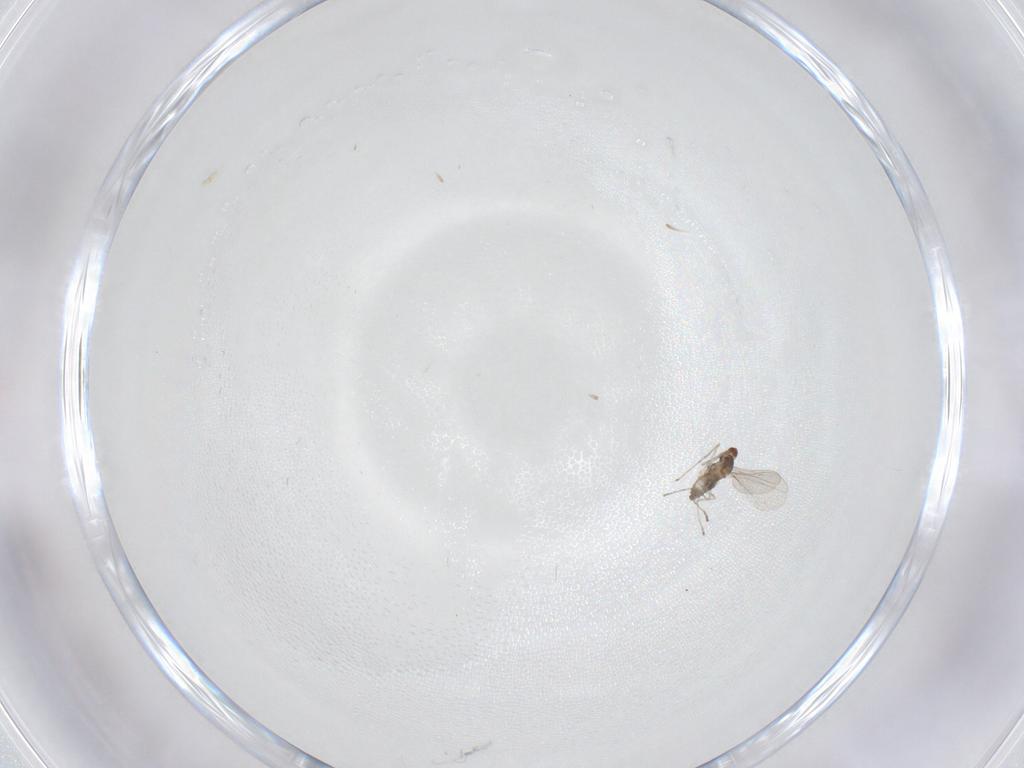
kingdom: Animalia
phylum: Arthropoda
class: Insecta
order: Diptera
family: Cecidomyiidae
